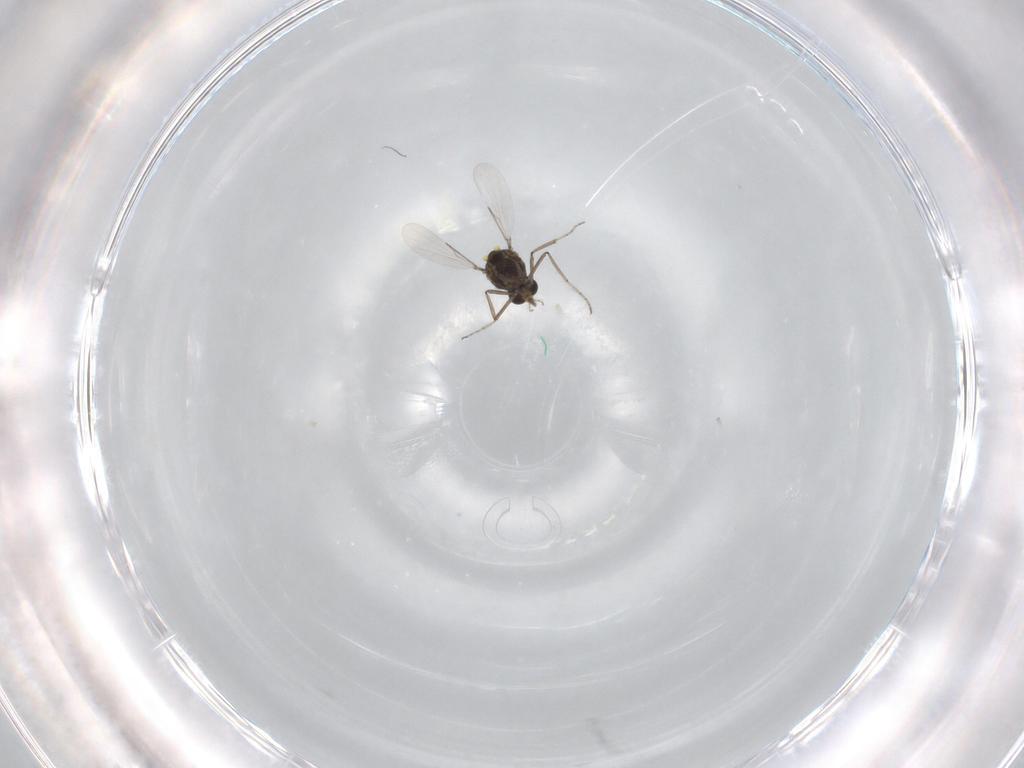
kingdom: Animalia
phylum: Arthropoda
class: Insecta
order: Diptera
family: Ceratopogonidae
